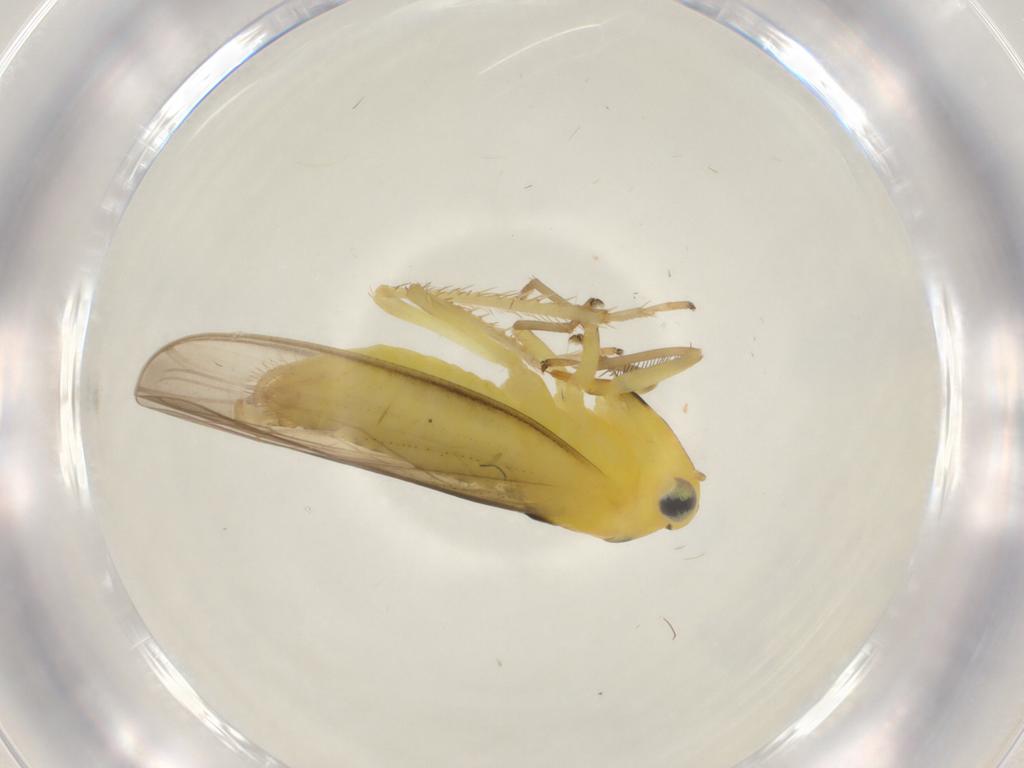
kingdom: Animalia
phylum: Arthropoda
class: Insecta
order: Hemiptera
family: Cicadellidae
